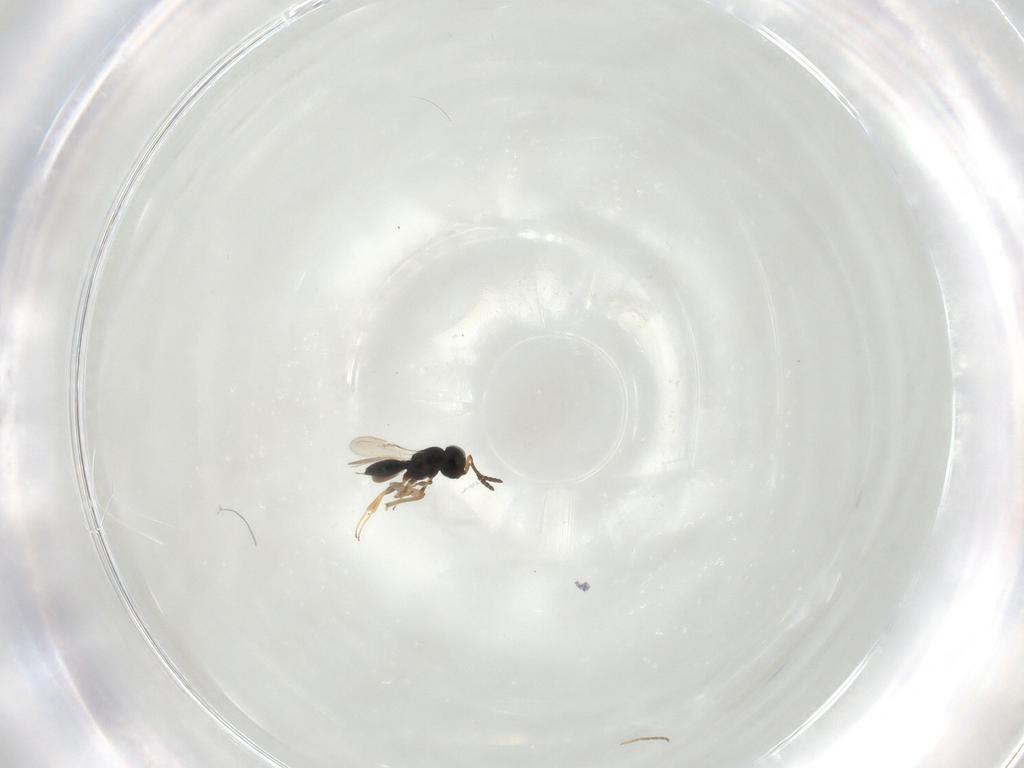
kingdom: Animalia
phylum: Arthropoda
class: Insecta
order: Hymenoptera
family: Scelionidae
